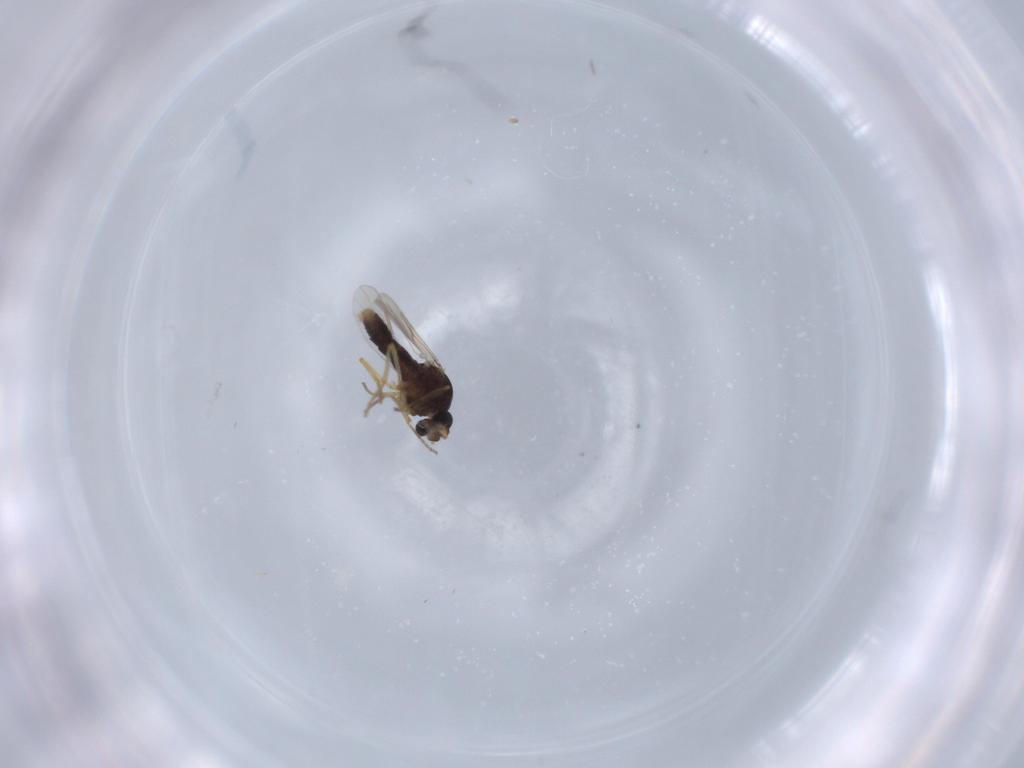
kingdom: Animalia
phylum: Arthropoda
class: Insecta
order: Diptera
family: Ceratopogonidae
